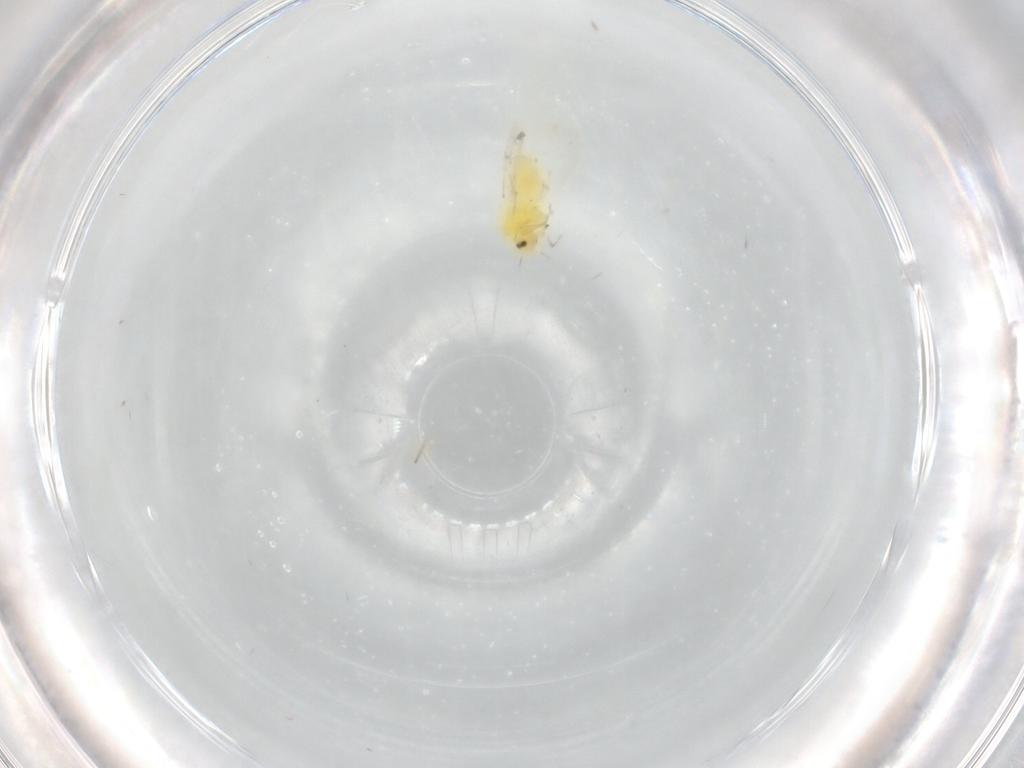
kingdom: Animalia
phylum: Arthropoda
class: Insecta
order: Hemiptera
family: Aleyrodidae
